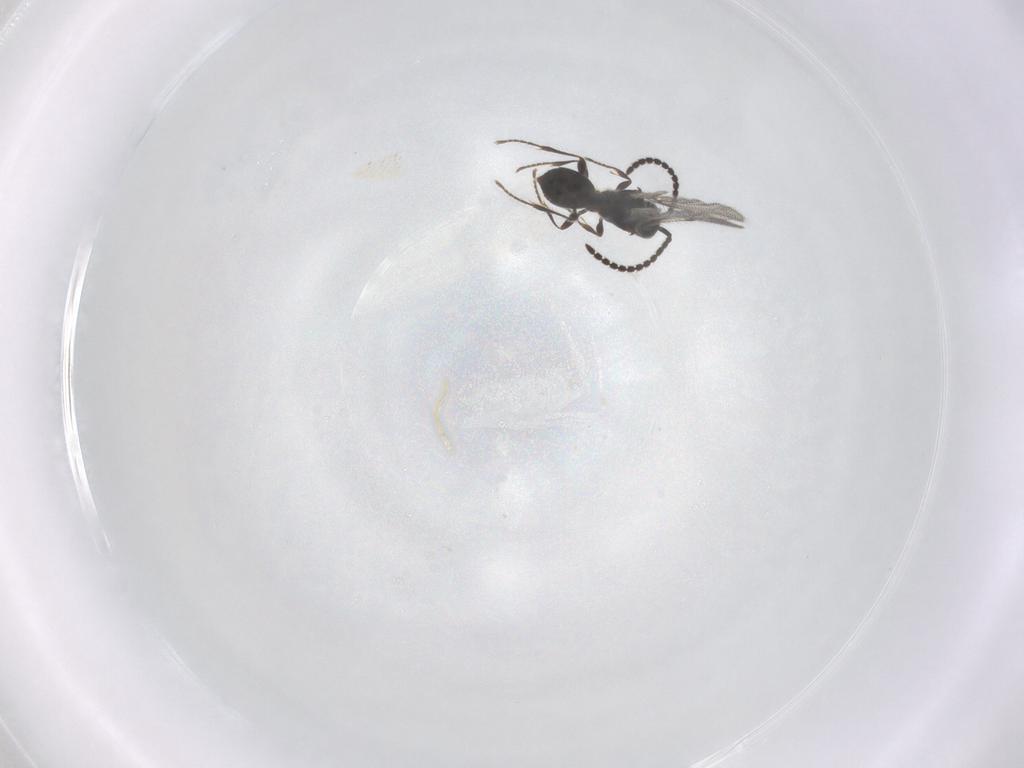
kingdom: Animalia
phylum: Arthropoda
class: Insecta
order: Hymenoptera
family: Diapriidae
